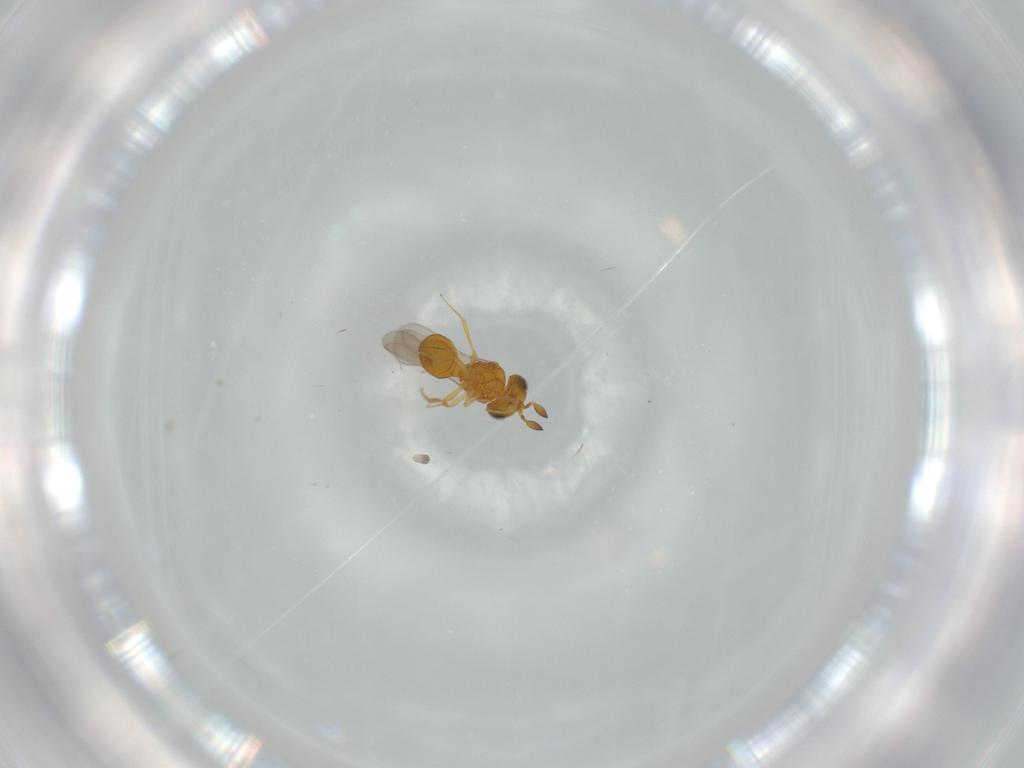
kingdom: Animalia
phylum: Arthropoda
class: Insecta
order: Hymenoptera
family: Scelionidae
